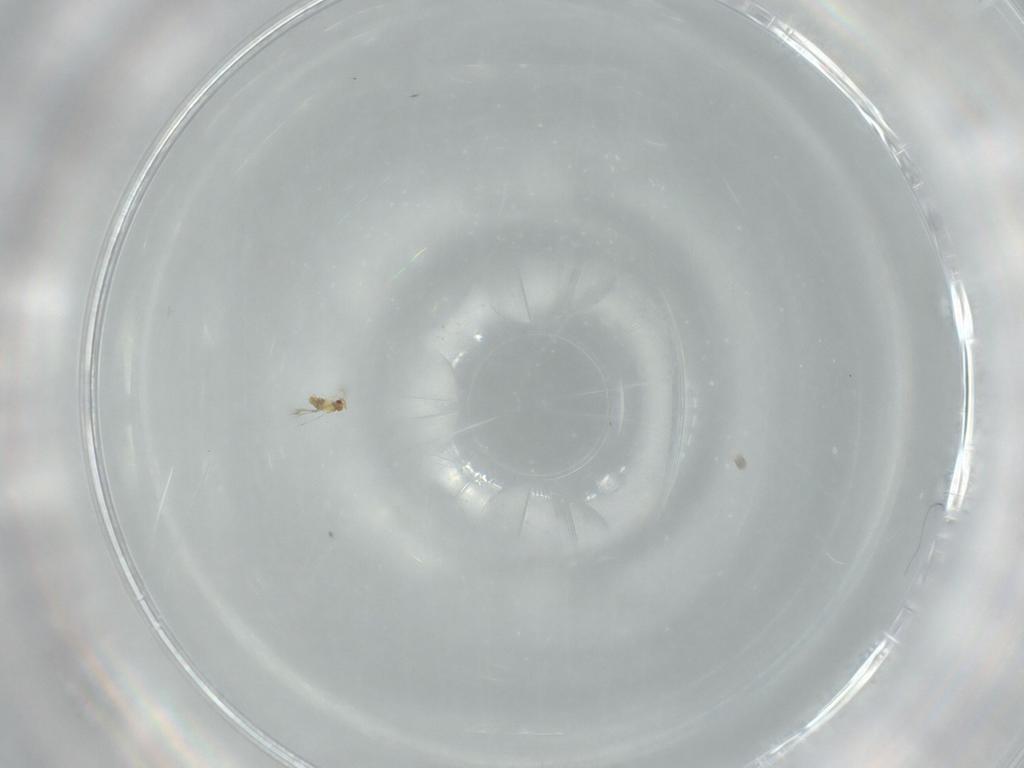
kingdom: Animalia
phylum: Arthropoda
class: Insecta
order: Hymenoptera
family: Trichogrammatidae
